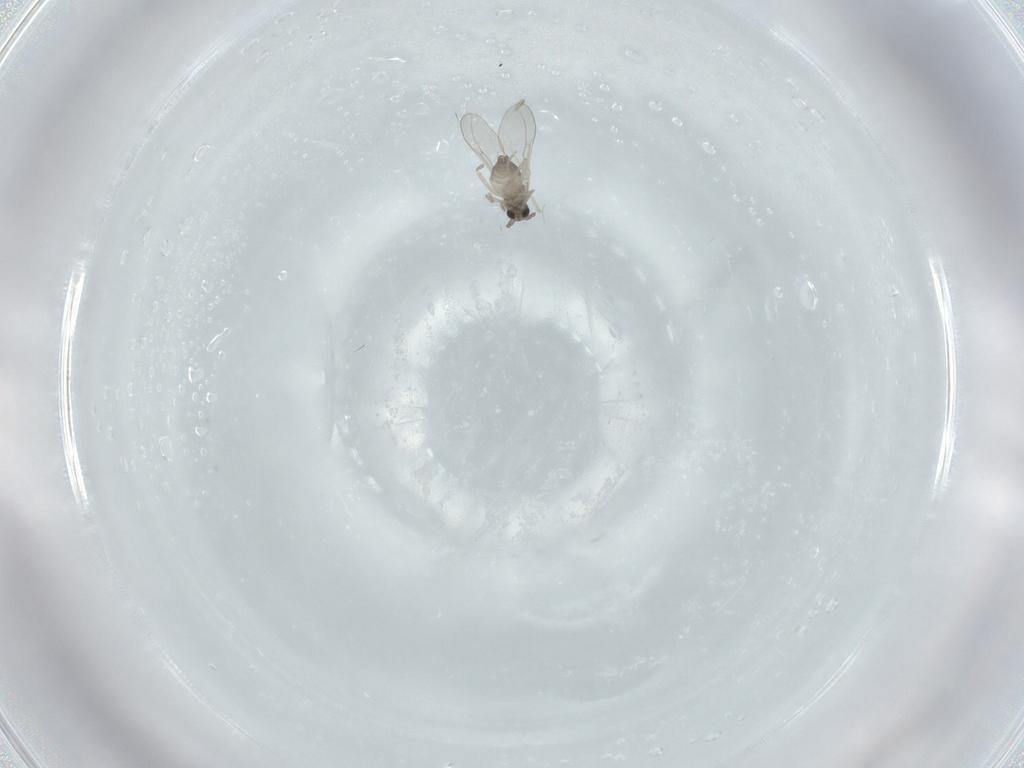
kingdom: Animalia
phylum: Arthropoda
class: Insecta
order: Diptera
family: Cecidomyiidae
